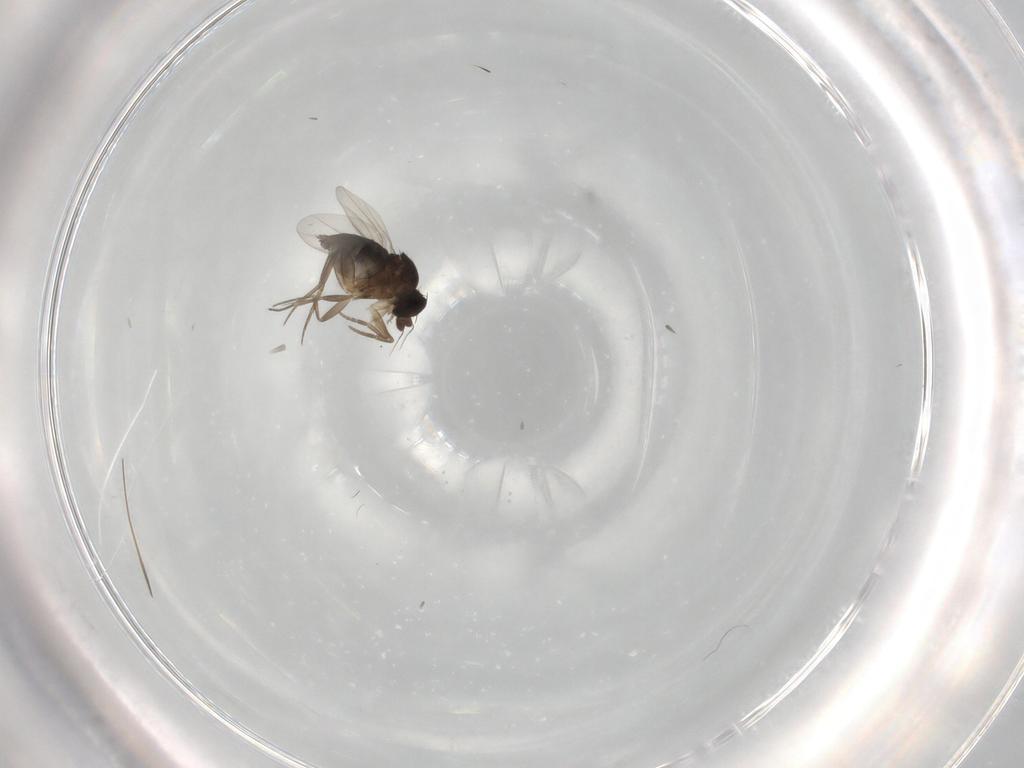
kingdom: Animalia
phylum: Arthropoda
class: Insecta
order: Diptera
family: Phoridae
